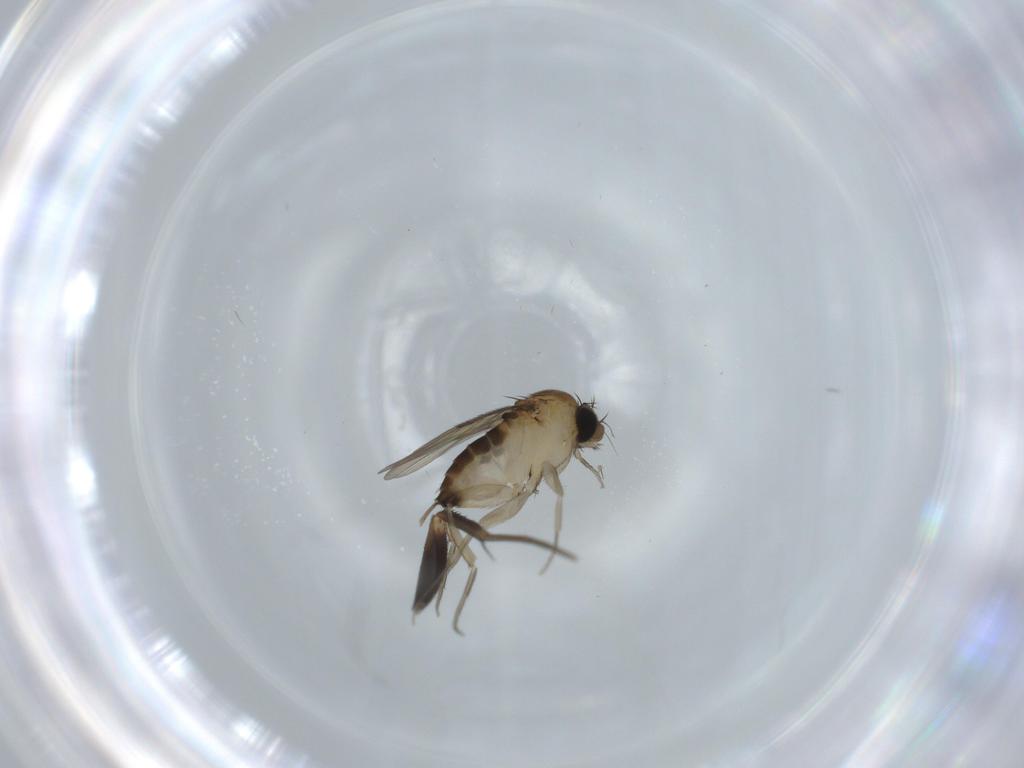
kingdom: Animalia
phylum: Arthropoda
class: Insecta
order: Diptera
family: Phoridae
